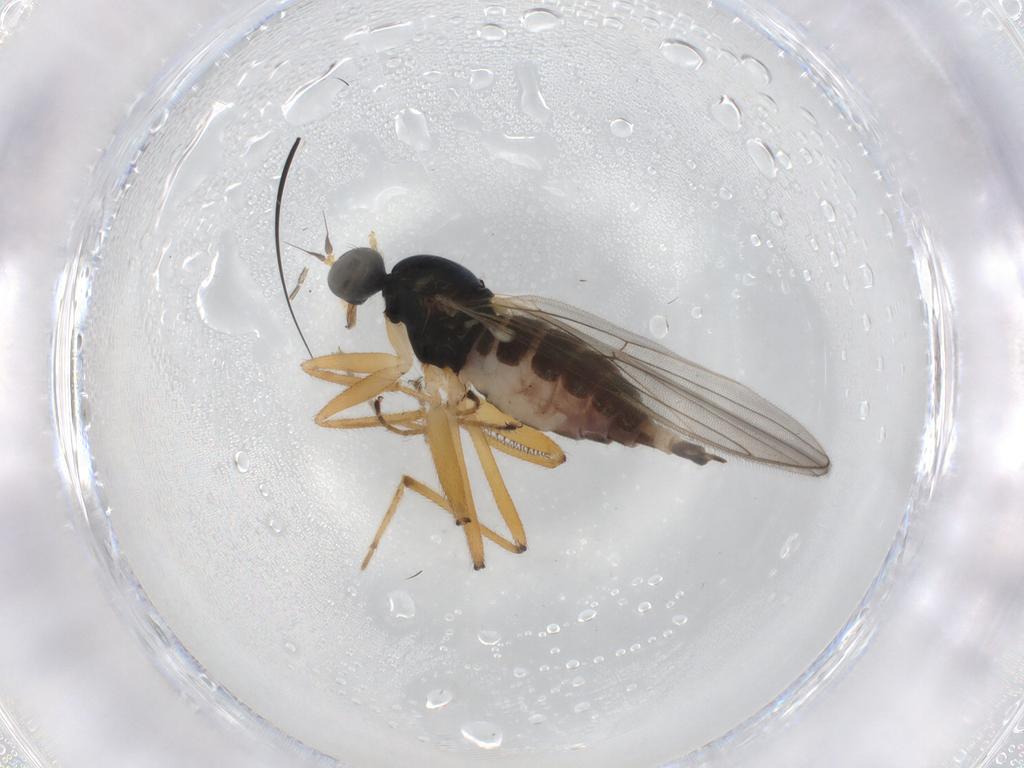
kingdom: Animalia
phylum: Arthropoda
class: Insecta
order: Diptera
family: Hybotidae
